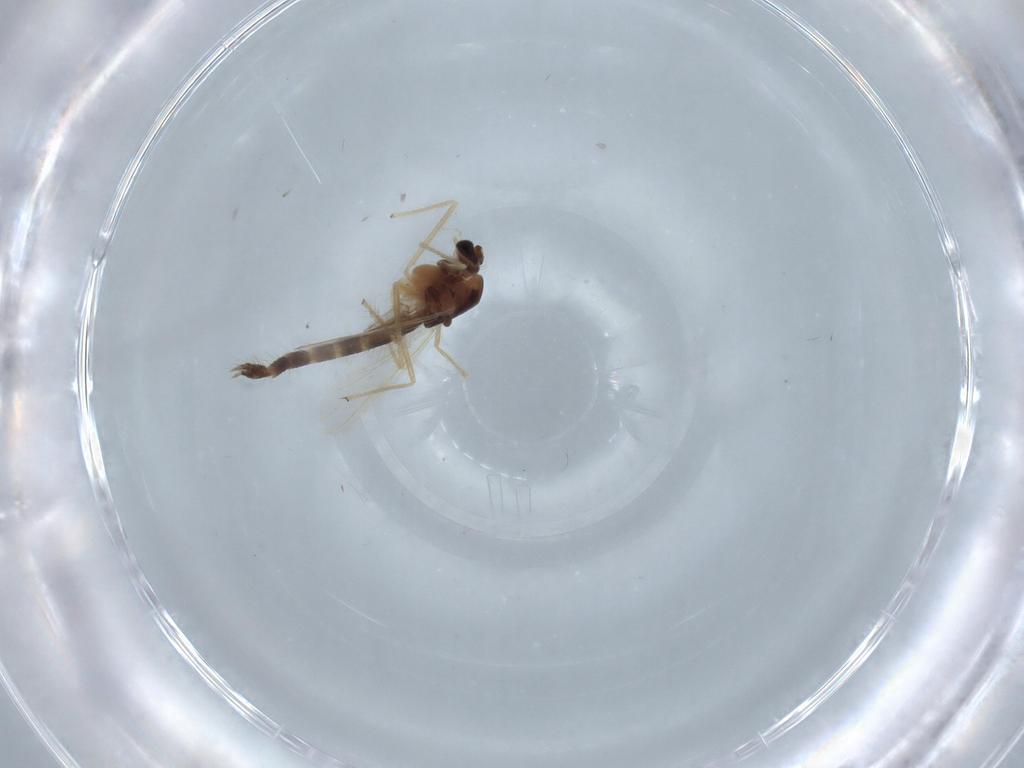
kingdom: Animalia
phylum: Arthropoda
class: Insecta
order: Diptera
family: Chironomidae
